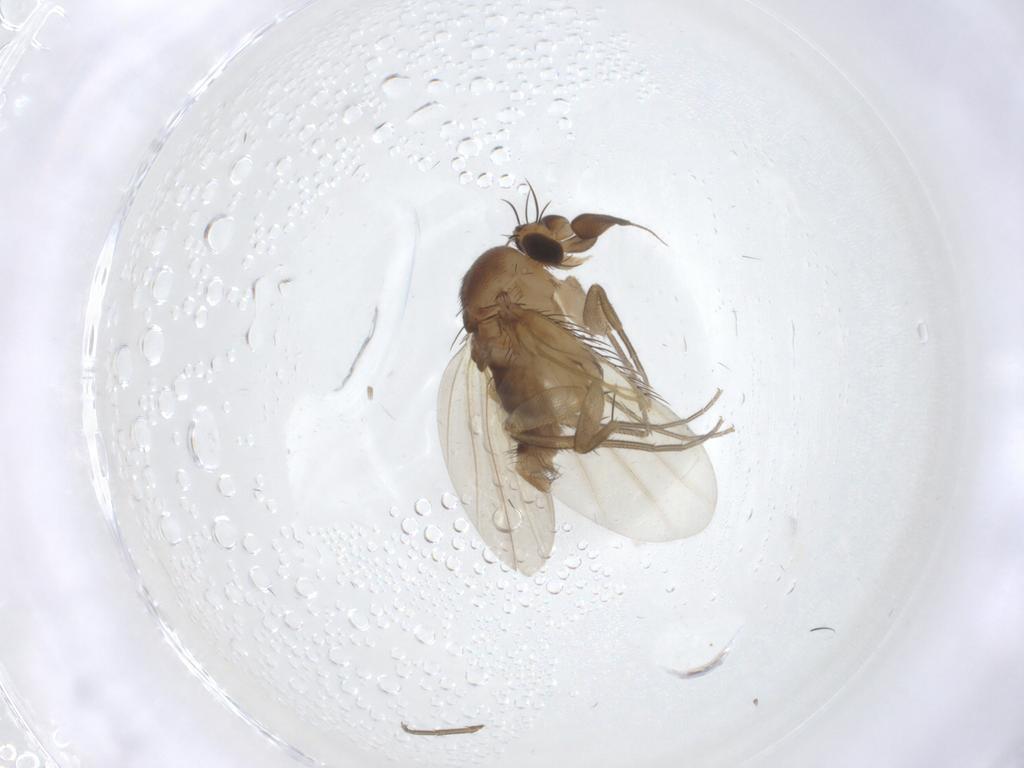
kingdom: Animalia
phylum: Arthropoda
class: Insecta
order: Diptera
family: Phoridae
